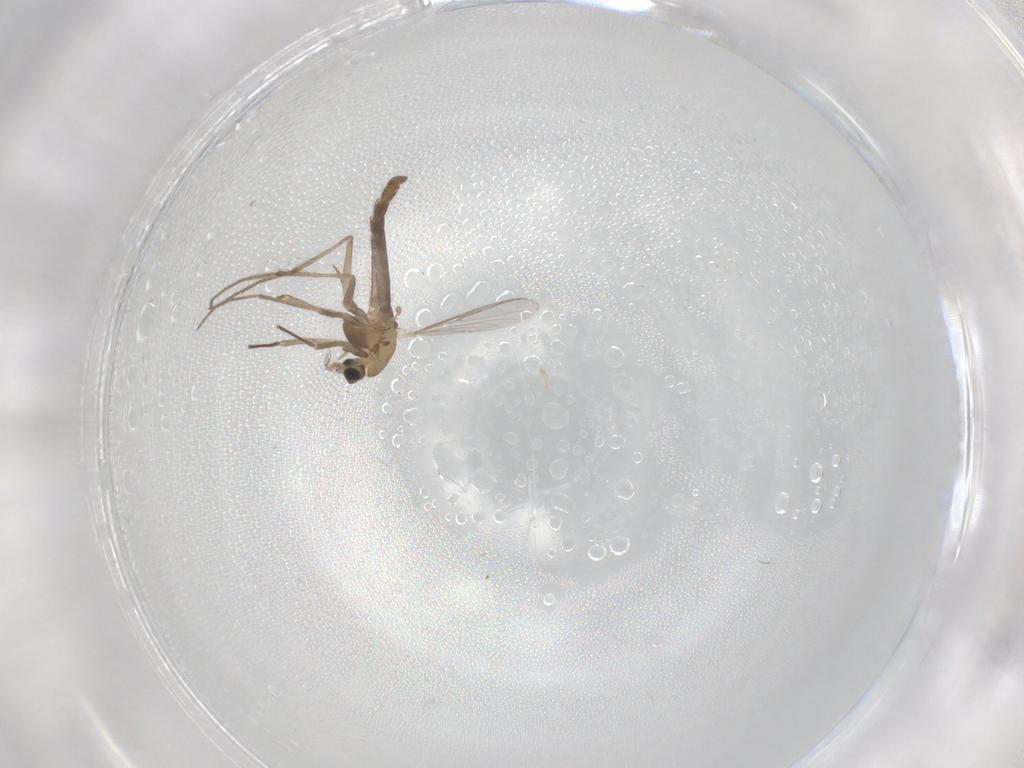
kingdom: Animalia
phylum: Arthropoda
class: Insecta
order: Diptera
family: Chironomidae
